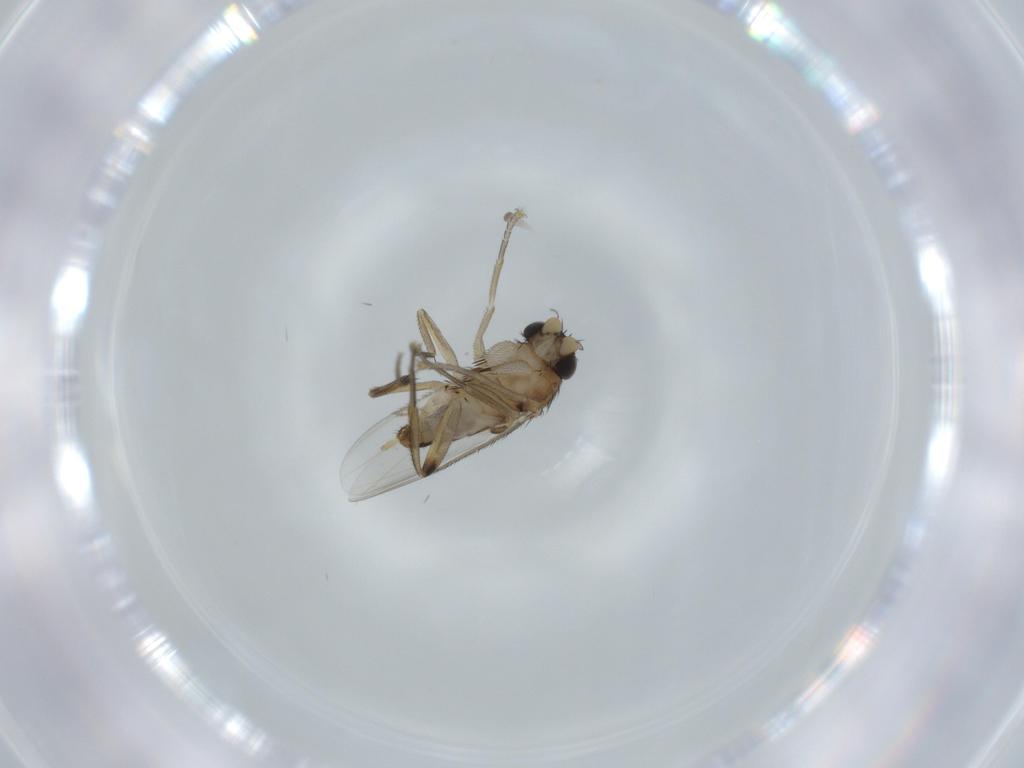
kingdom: Animalia
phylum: Arthropoda
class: Insecta
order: Diptera
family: Phoridae
